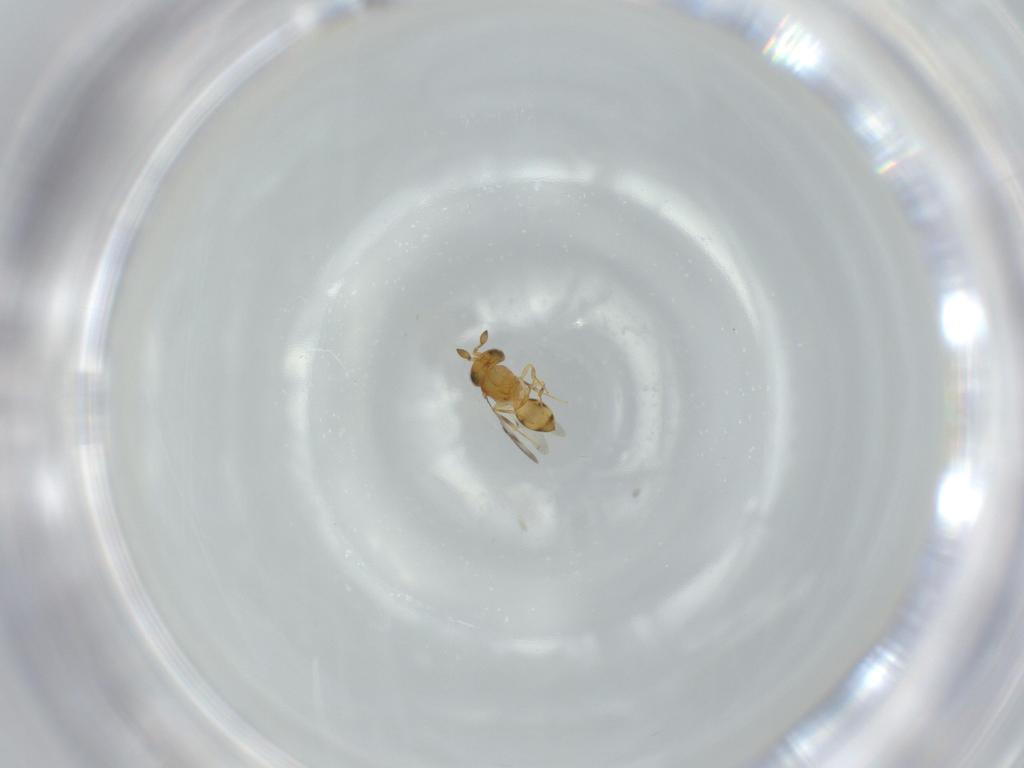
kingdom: Animalia
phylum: Arthropoda
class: Insecta
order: Hymenoptera
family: Scelionidae
